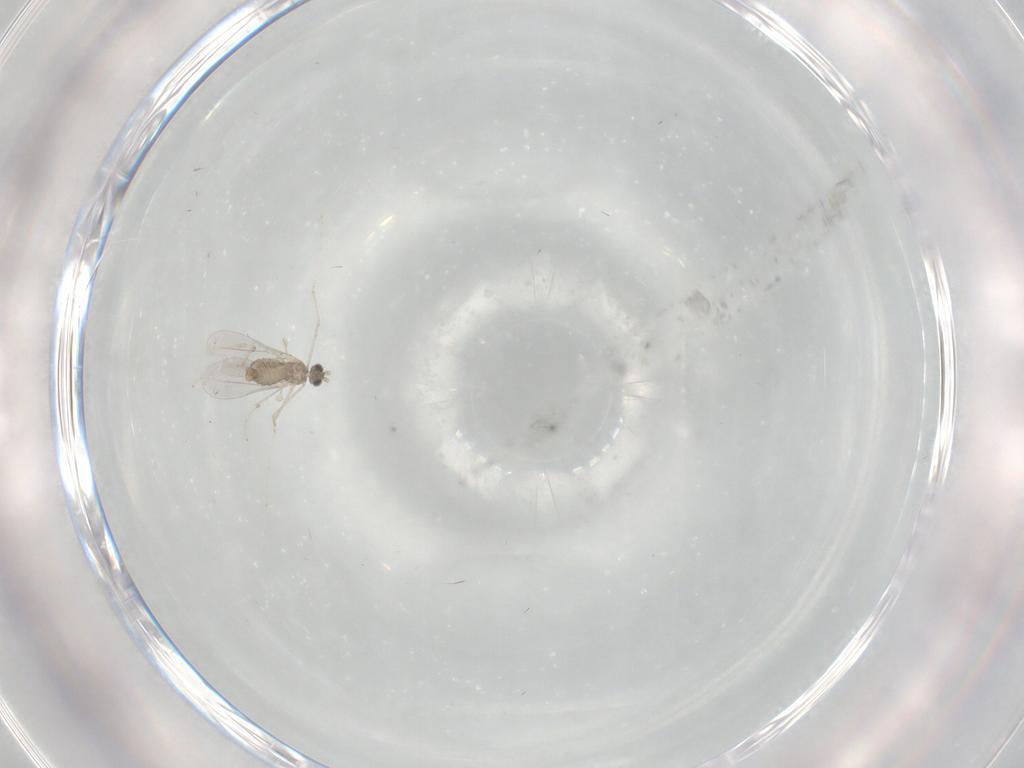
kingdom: Animalia
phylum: Arthropoda
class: Insecta
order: Diptera
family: Cecidomyiidae
